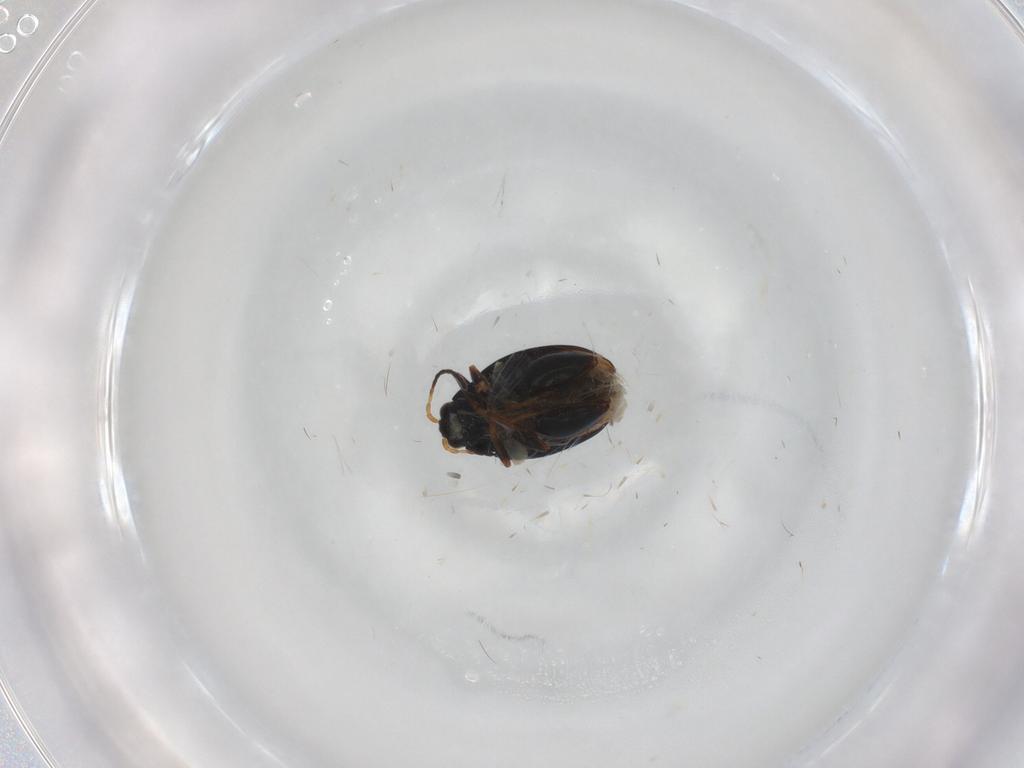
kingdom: Animalia
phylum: Arthropoda
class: Insecta
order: Coleoptera
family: Chrysomelidae
